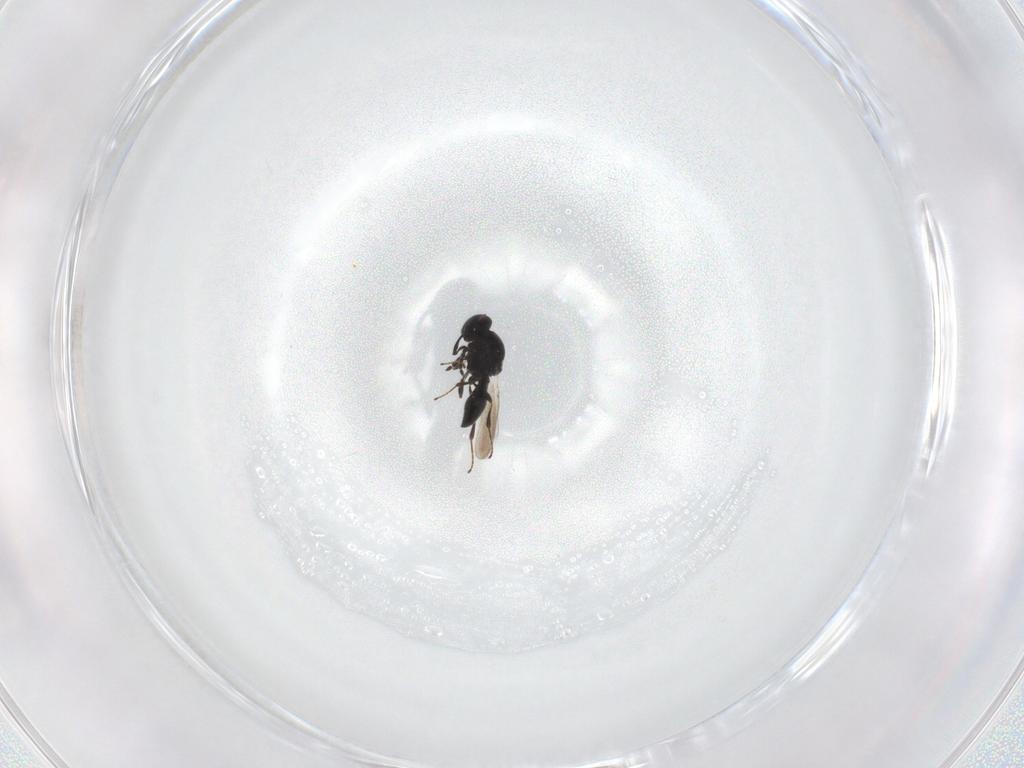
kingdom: Animalia
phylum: Arthropoda
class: Insecta
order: Hymenoptera
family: Platygastridae
